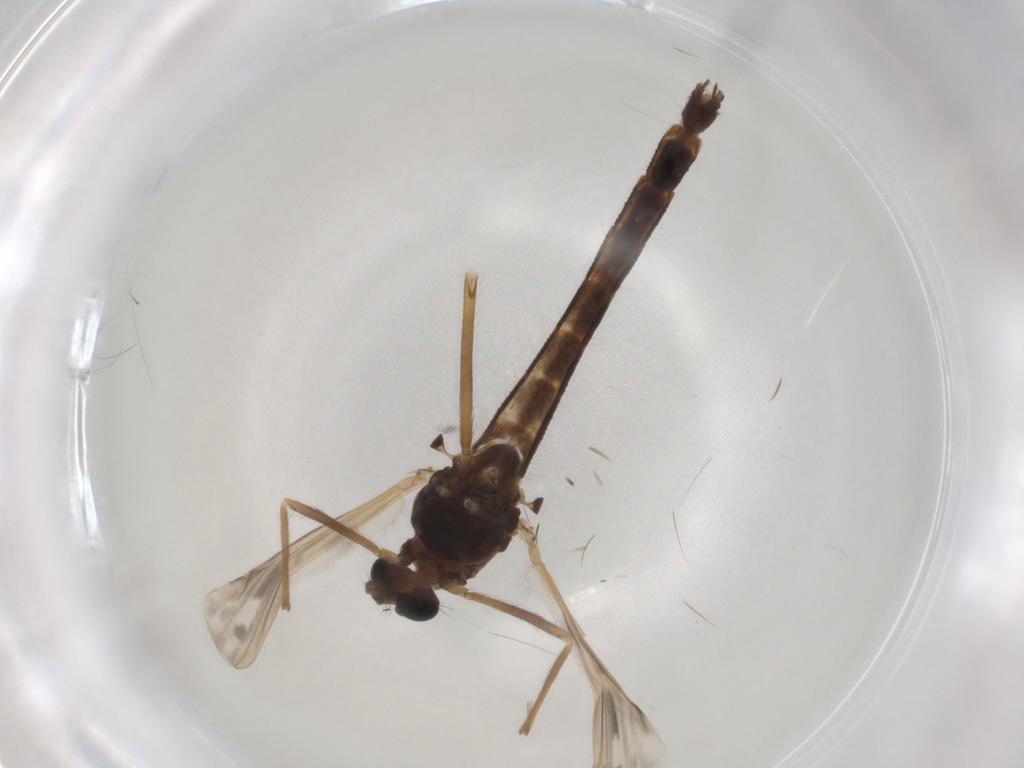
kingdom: Animalia
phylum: Arthropoda
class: Insecta
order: Diptera
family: Chironomidae
